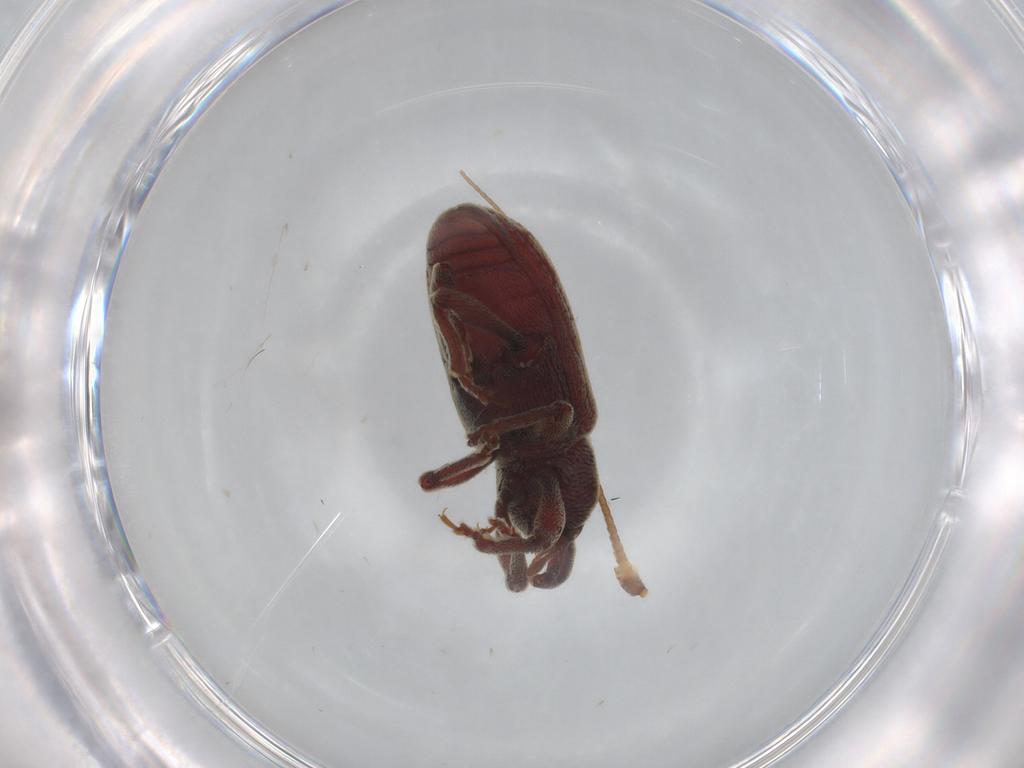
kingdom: Animalia
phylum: Arthropoda
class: Insecta
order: Coleoptera
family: Curculionidae
